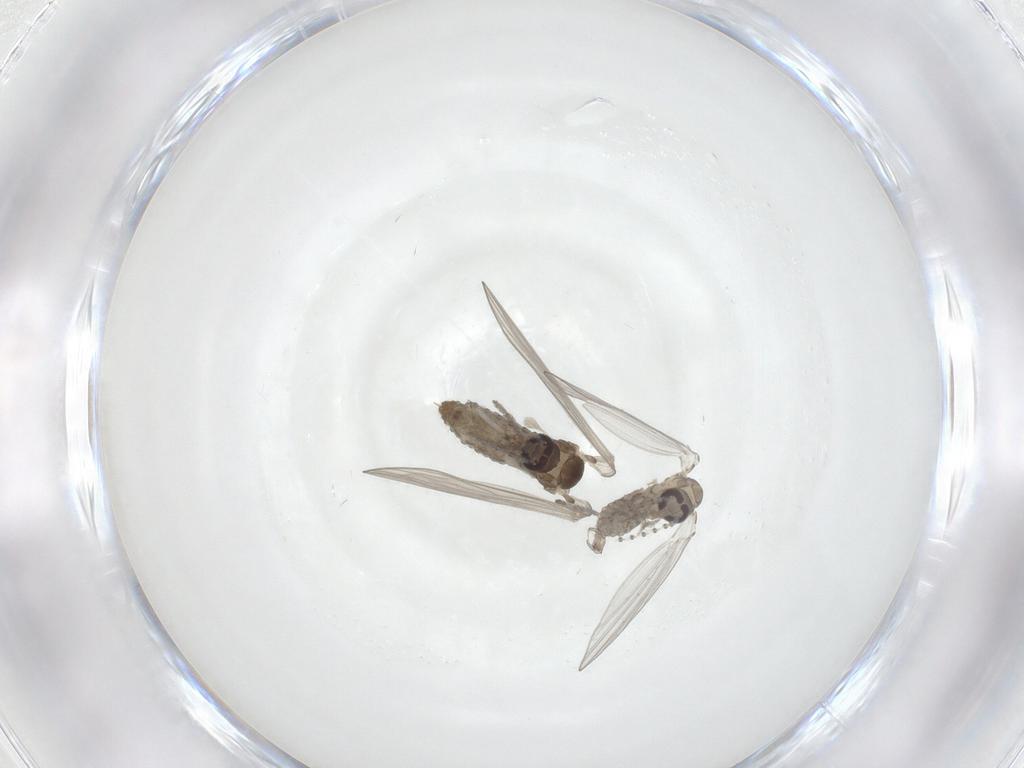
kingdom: Animalia
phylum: Arthropoda
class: Insecta
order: Diptera
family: Psychodidae
